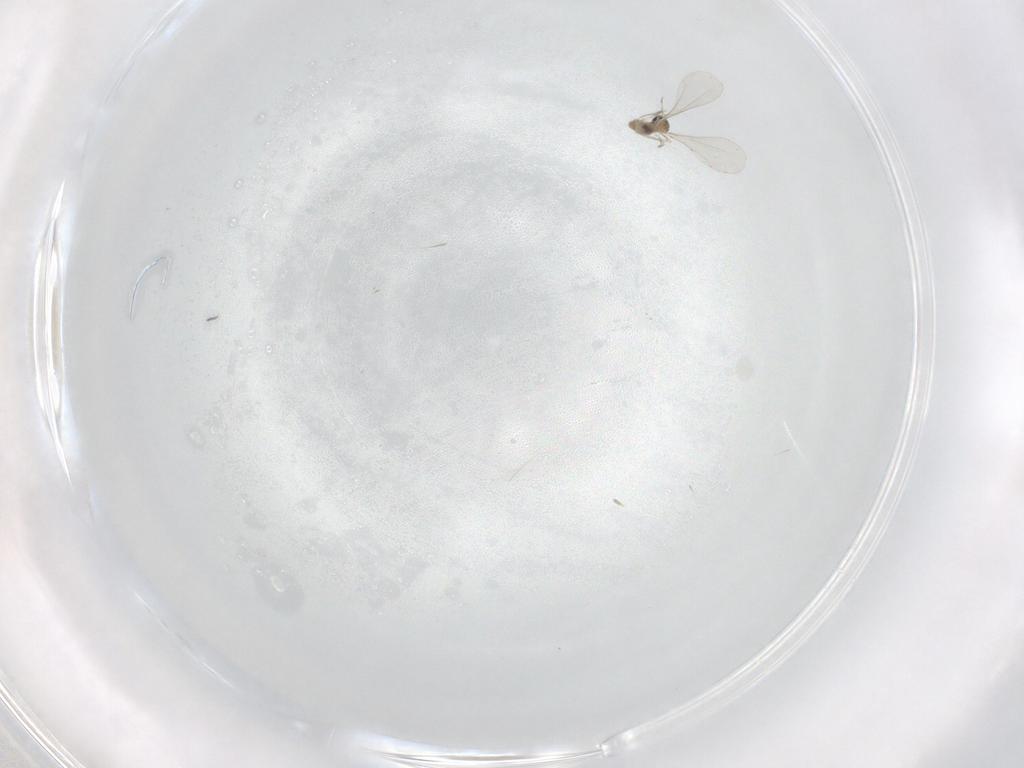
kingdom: Animalia
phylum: Arthropoda
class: Insecta
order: Diptera
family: Cecidomyiidae
